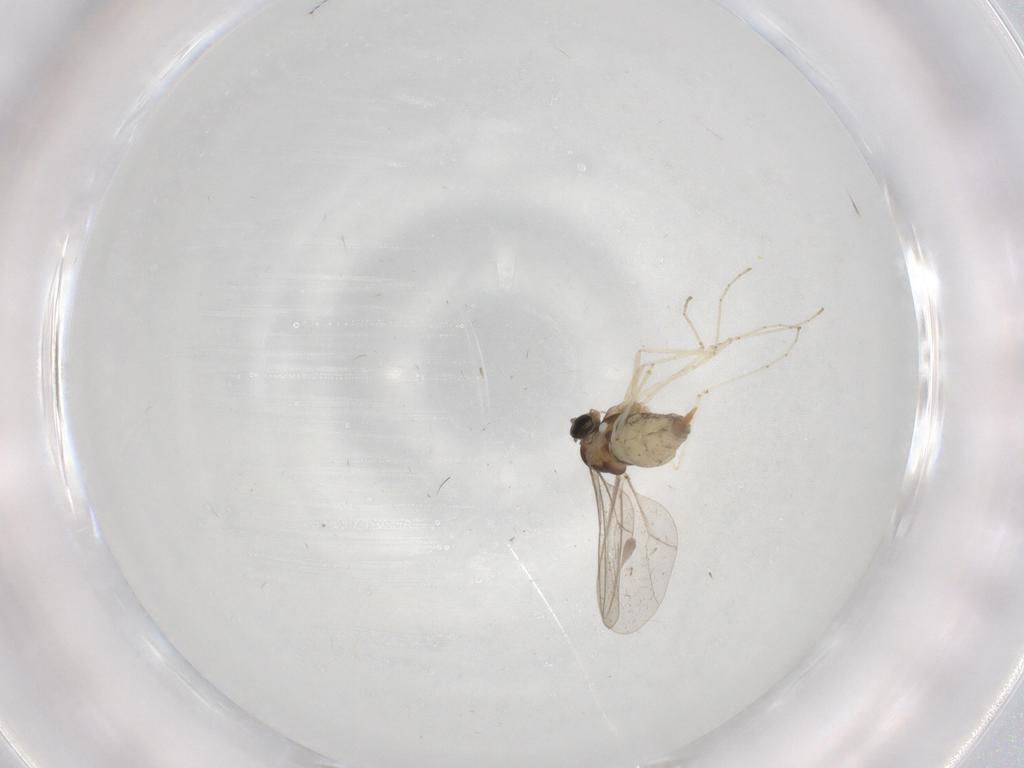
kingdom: Animalia
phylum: Arthropoda
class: Insecta
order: Diptera
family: Cecidomyiidae
